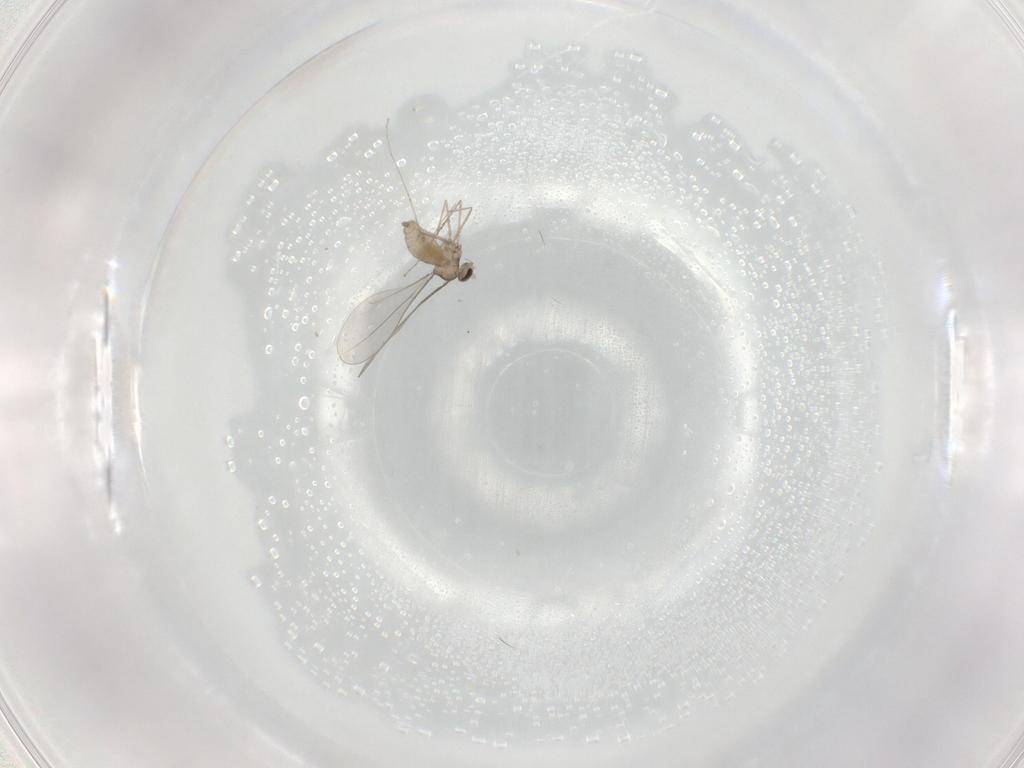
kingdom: Animalia
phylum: Arthropoda
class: Insecta
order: Diptera
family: Cecidomyiidae
